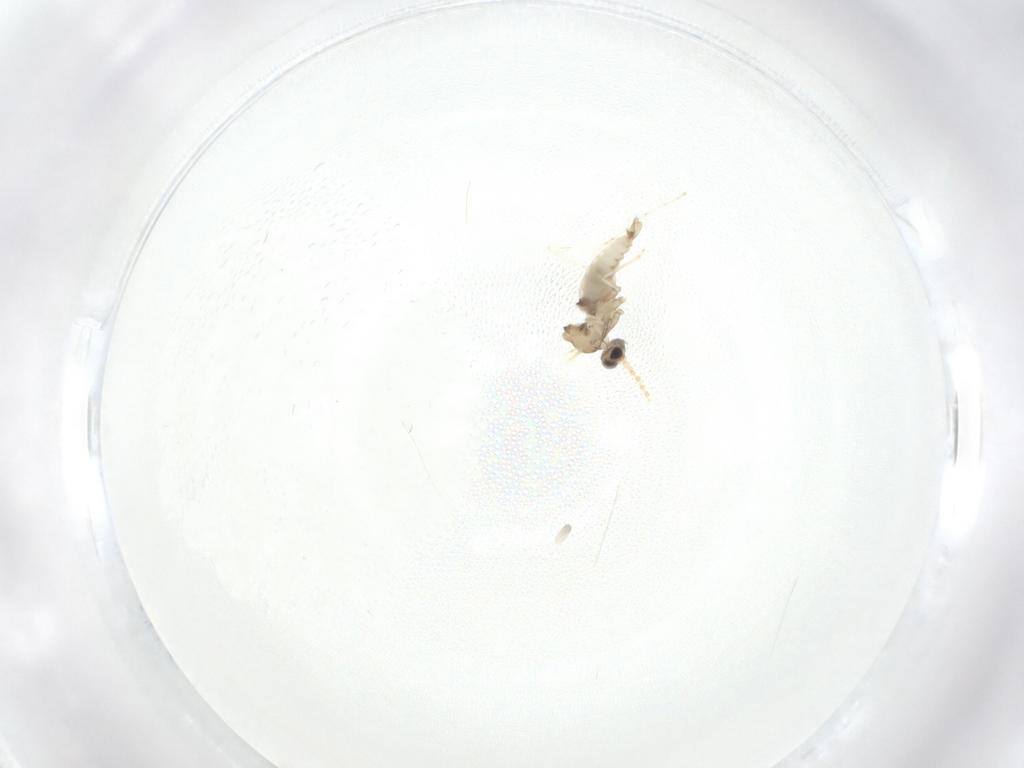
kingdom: Animalia
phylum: Arthropoda
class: Insecta
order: Diptera
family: Cecidomyiidae
